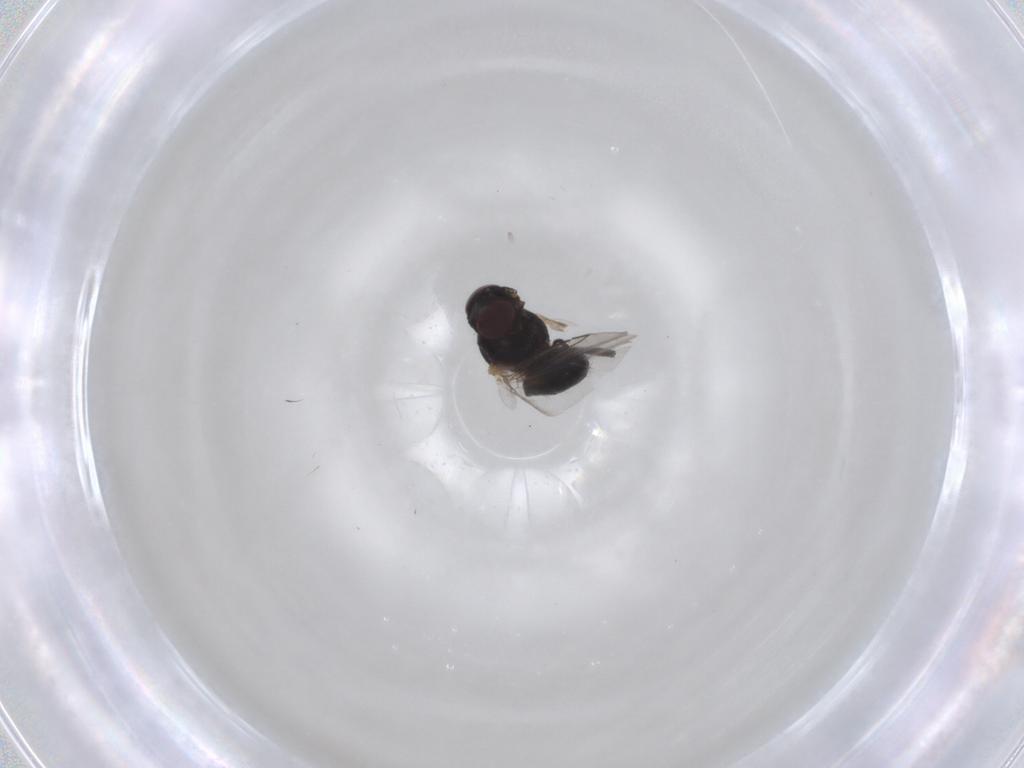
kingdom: Animalia
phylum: Arthropoda
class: Insecta
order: Diptera
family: Agromyzidae
